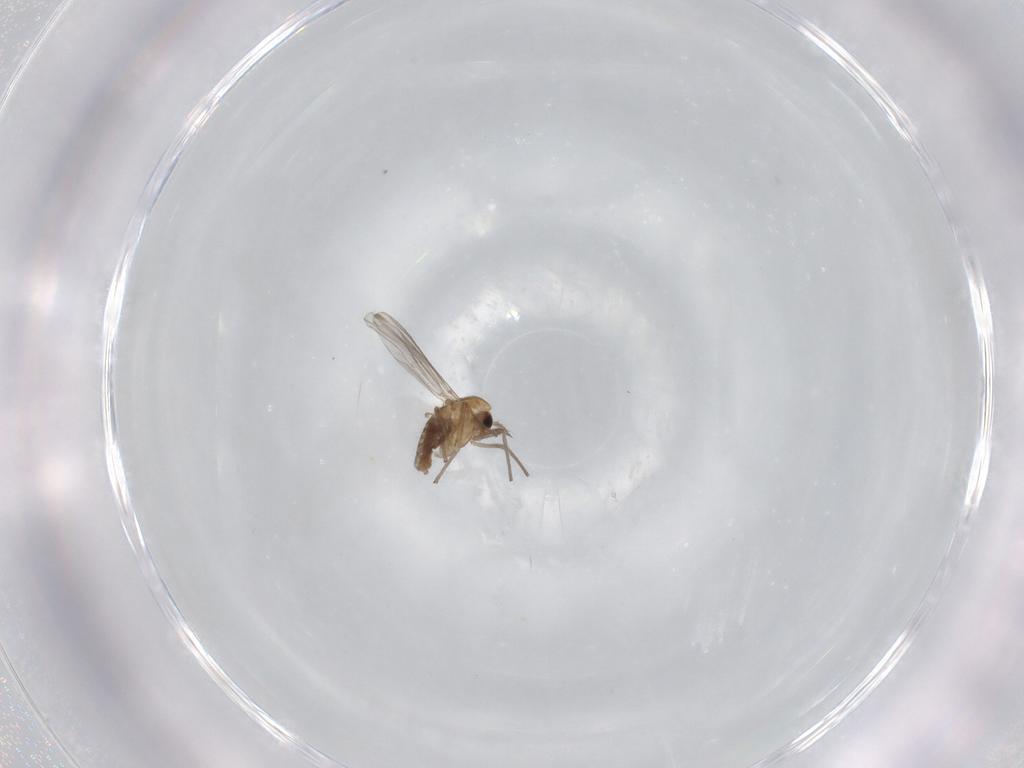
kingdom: Animalia
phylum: Arthropoda
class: Insecta
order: Diptera
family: Chironomidae
